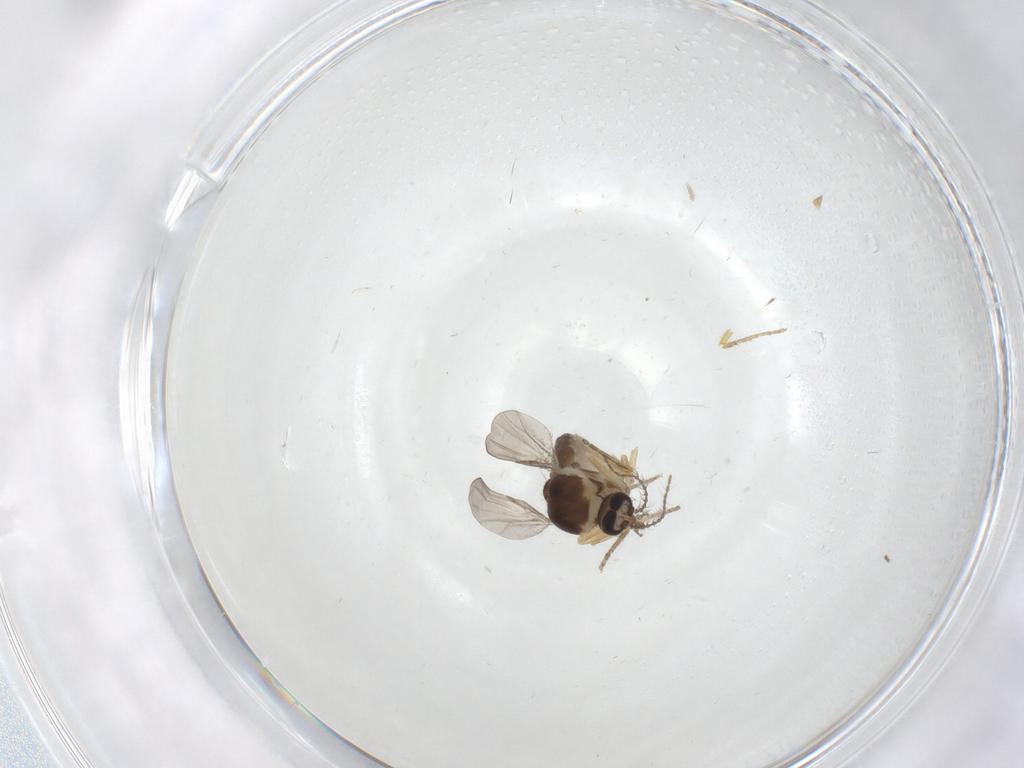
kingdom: Animalia
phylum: Arthropoda
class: Insecta
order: Diptera
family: Ceratopogonidae
